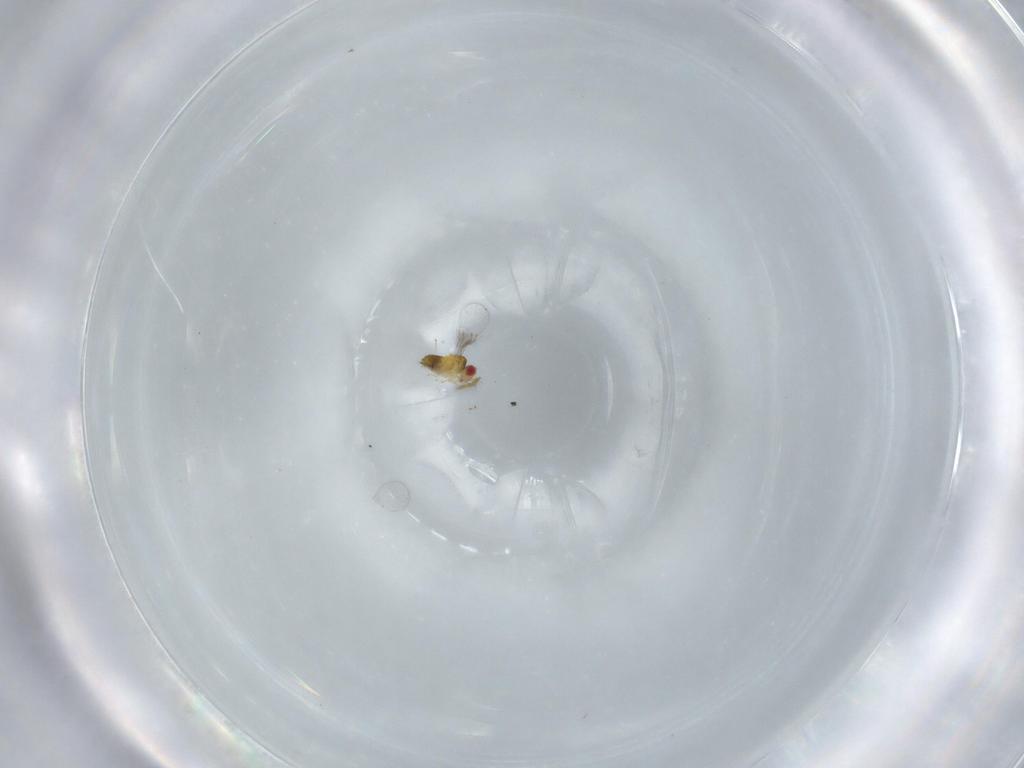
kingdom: Animalia
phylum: Arthropoda
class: Insecta
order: Hymenoptera
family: Trichogrammatidae
